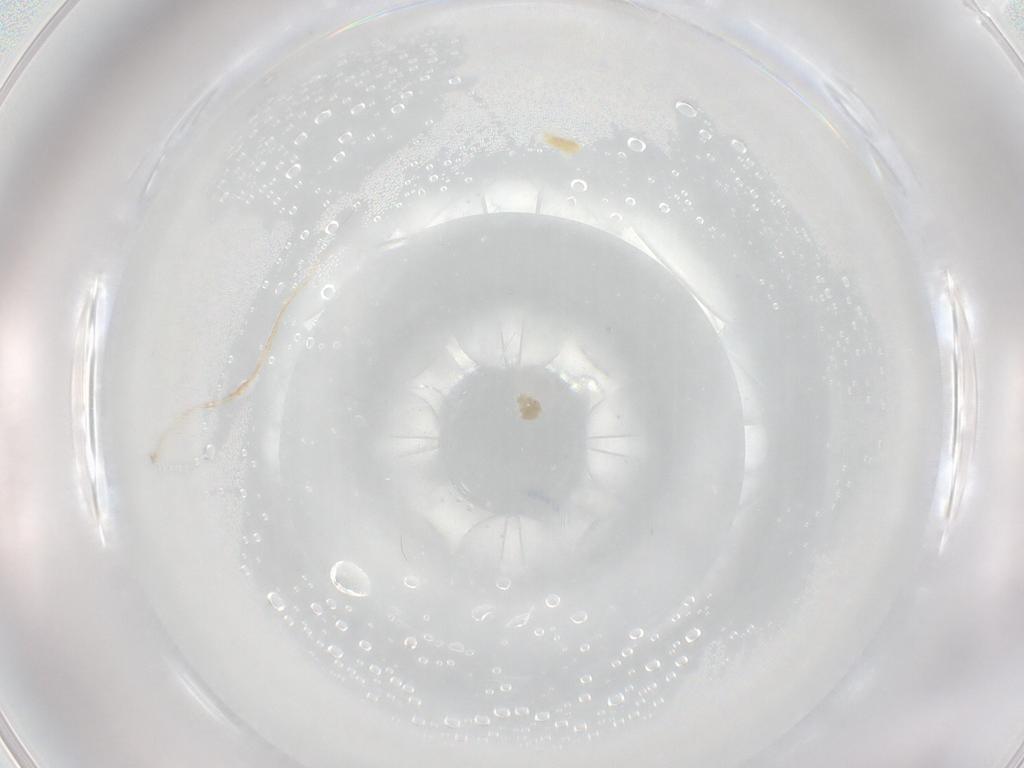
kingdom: Animalia
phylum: Arthropoda
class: Arachnida
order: Trombidiformes
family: Eupodidae
